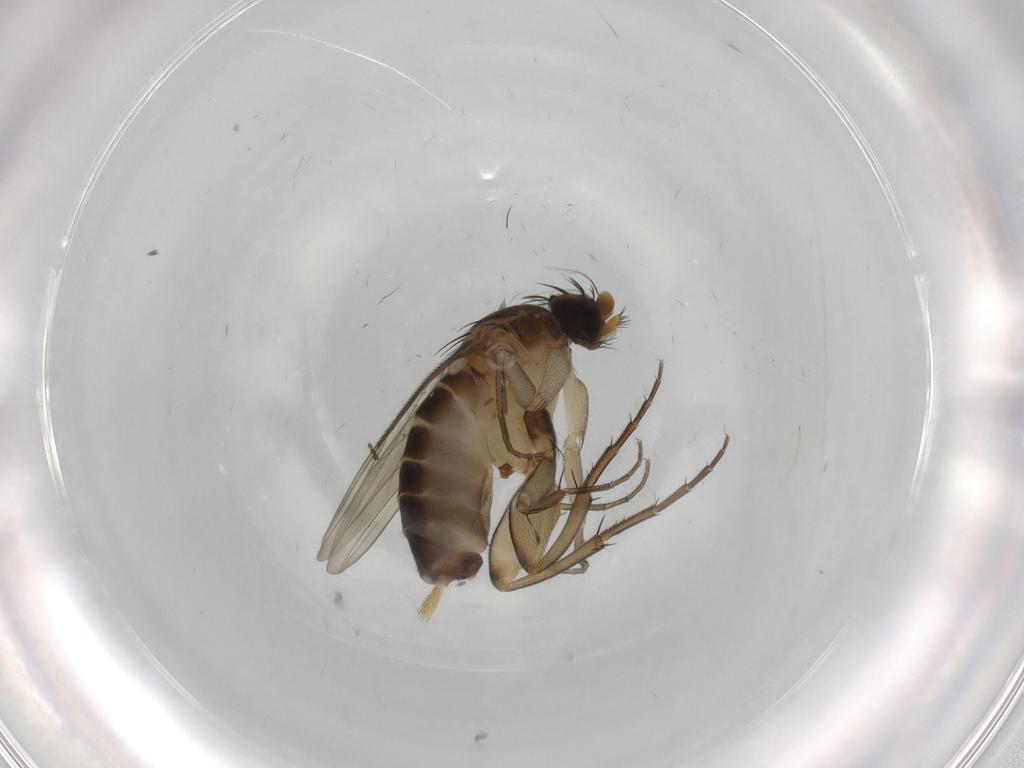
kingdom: Animalia
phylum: Arthropoda
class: Insecta
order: Diptera
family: Phoridae
